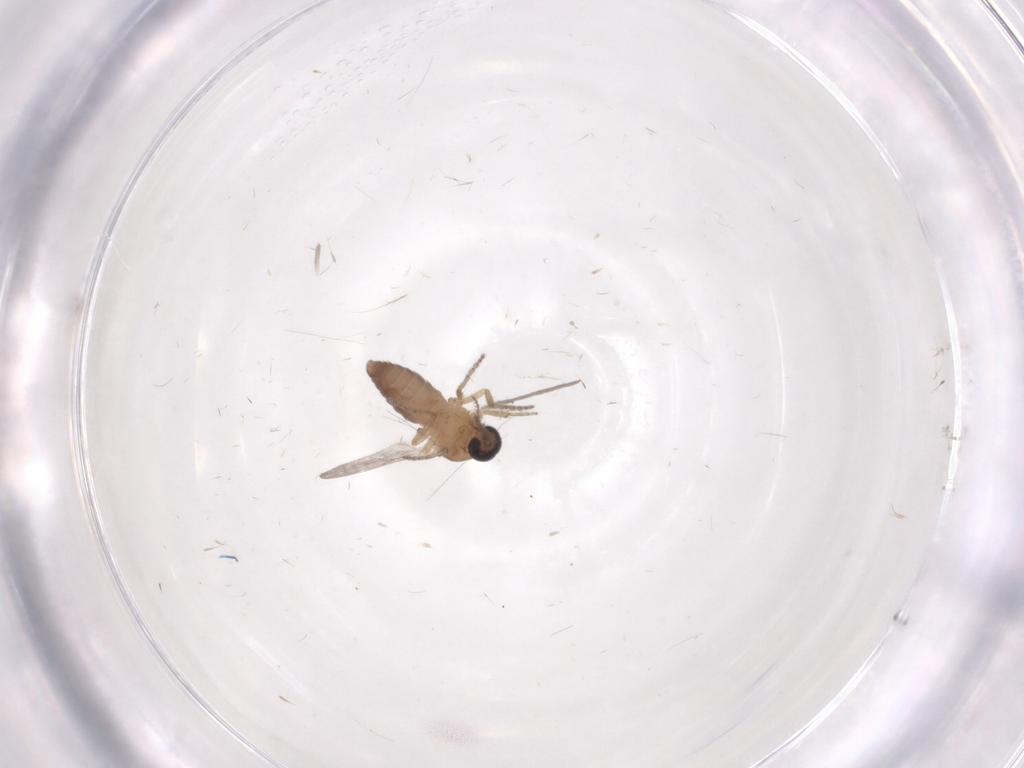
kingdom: Animalia
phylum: Arthropoda
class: Insecta
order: Diptera
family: Ceratopogonidae
